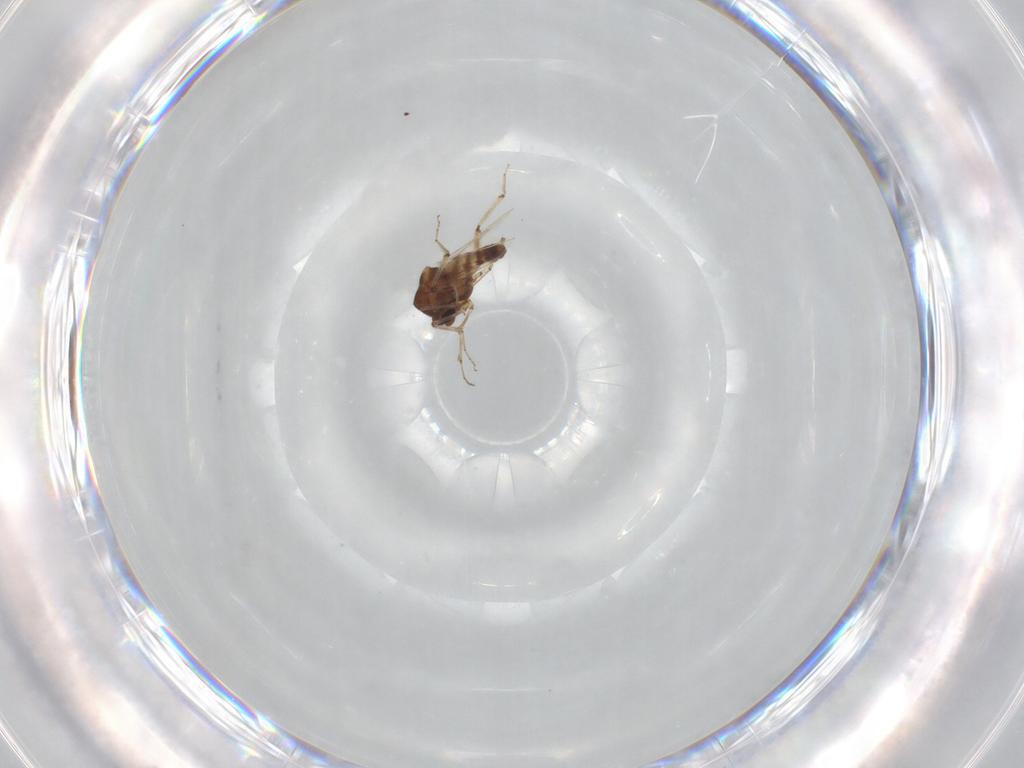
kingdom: Animalia
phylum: Arthropoda
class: Insecta
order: Diptera
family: Ceratopogonidae
